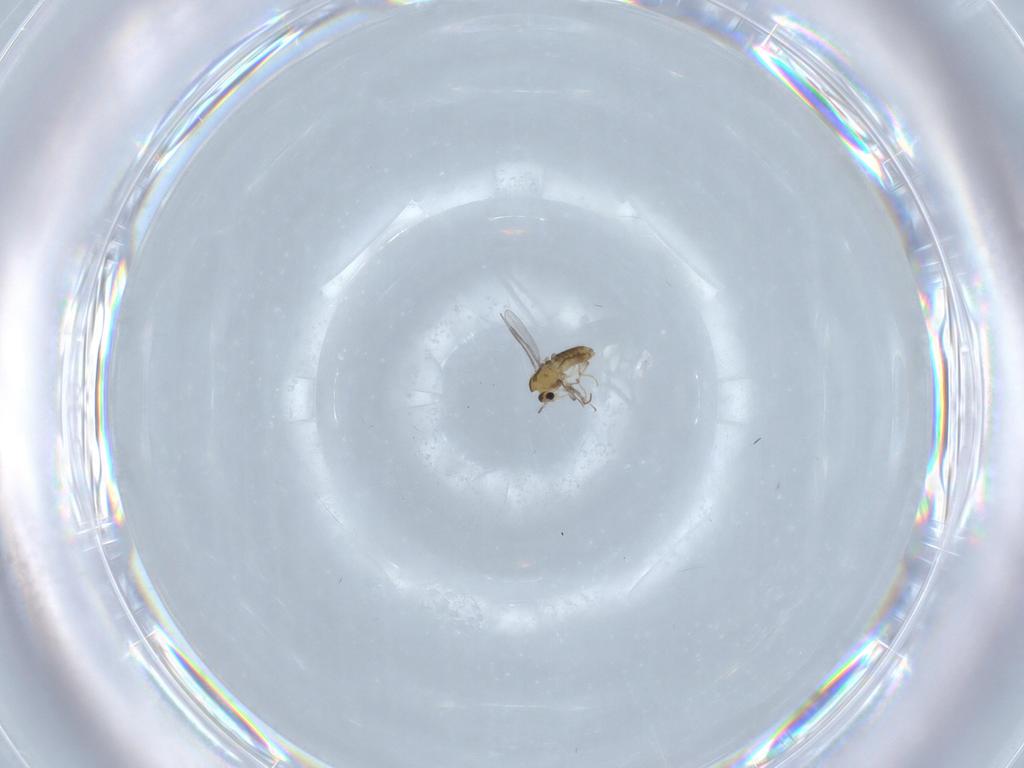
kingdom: Animalia
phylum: Arthropoda
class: Insecta
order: Diptera
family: Chironomidae
